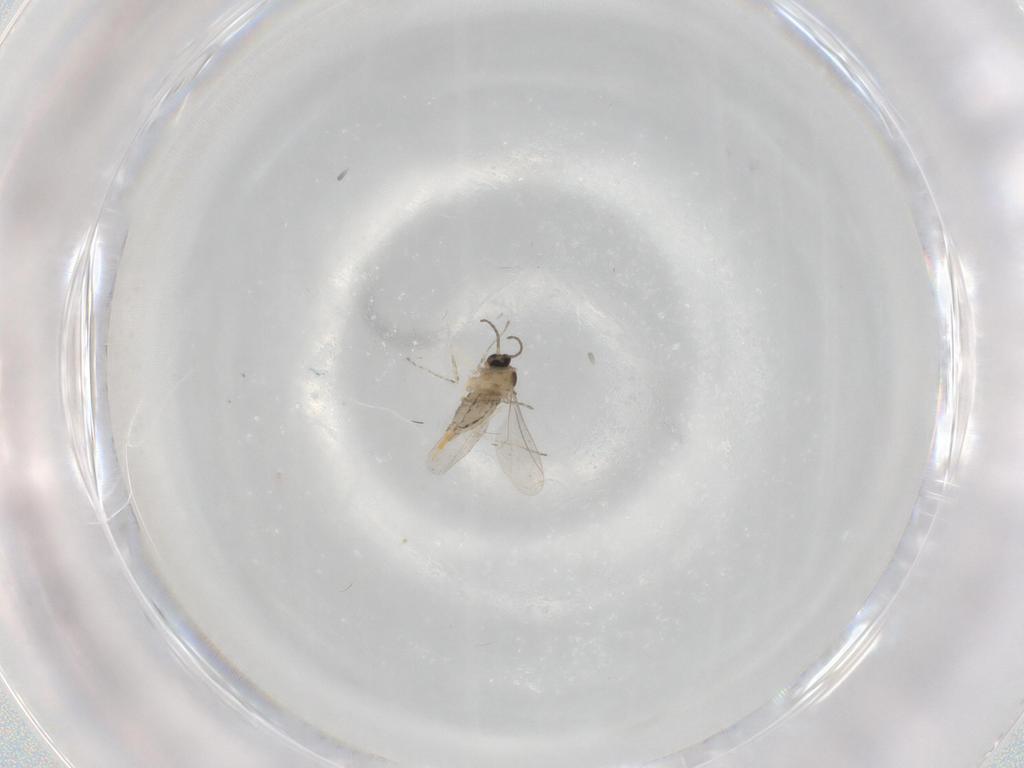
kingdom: Animalia
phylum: Arthropoda
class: Insecta
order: Diptera
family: Cecidomyiidae
